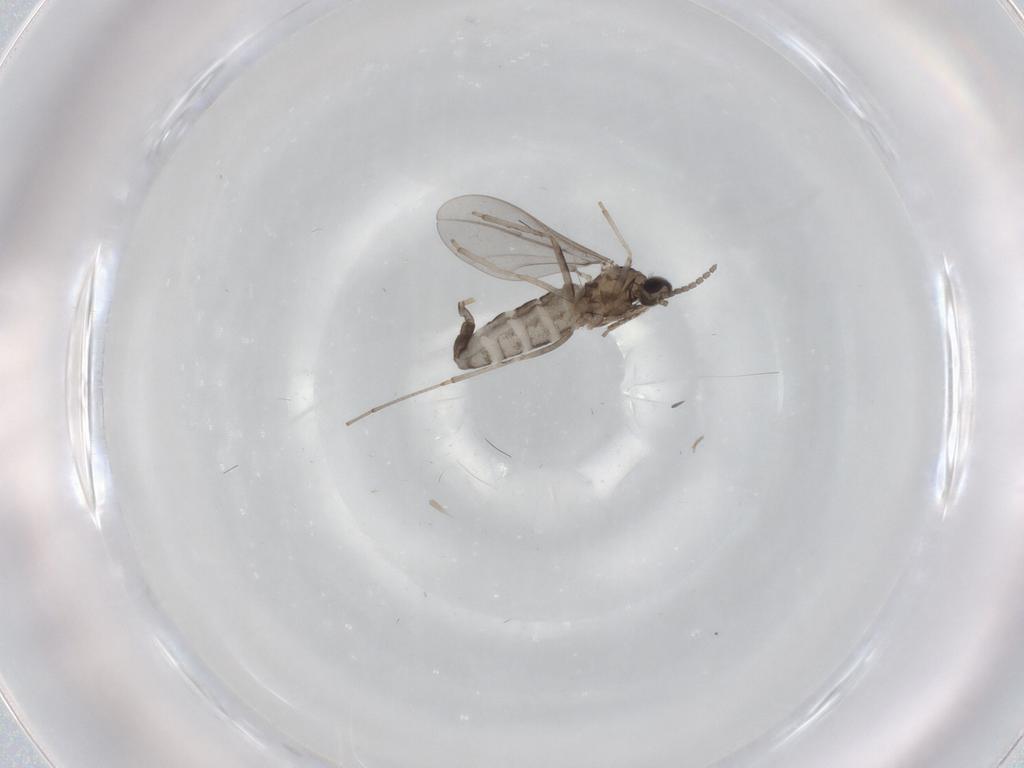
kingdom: Animalia
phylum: Arthropoda
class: Insecta
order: Diptera
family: Cecidomyiidae
